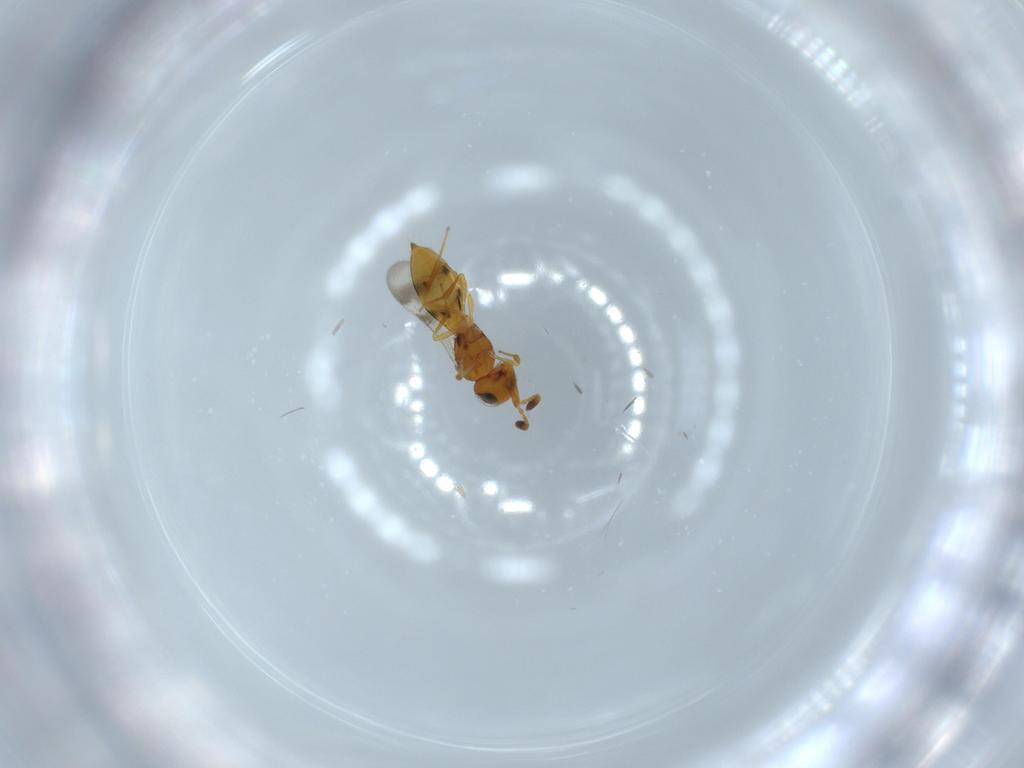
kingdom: Animalia
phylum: Arthropoda
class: Insecta
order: Hymenoptera
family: Scelionidae
